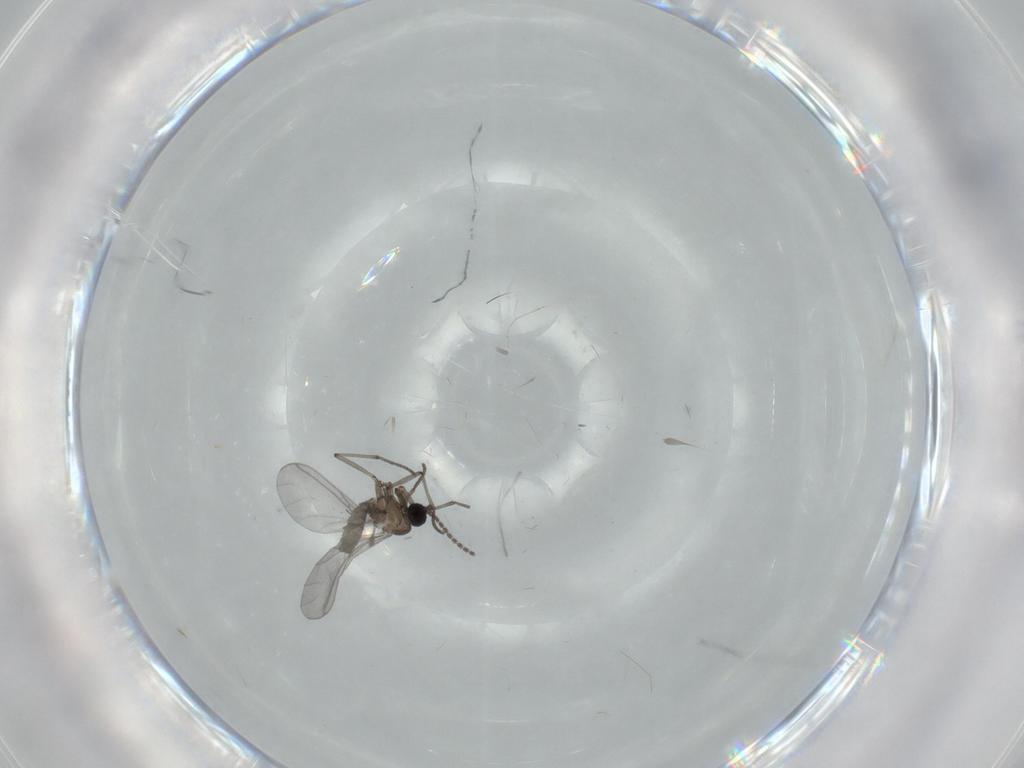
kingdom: Animalia
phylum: Arthropoda
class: Insecta
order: Diptera
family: Sciaridae
